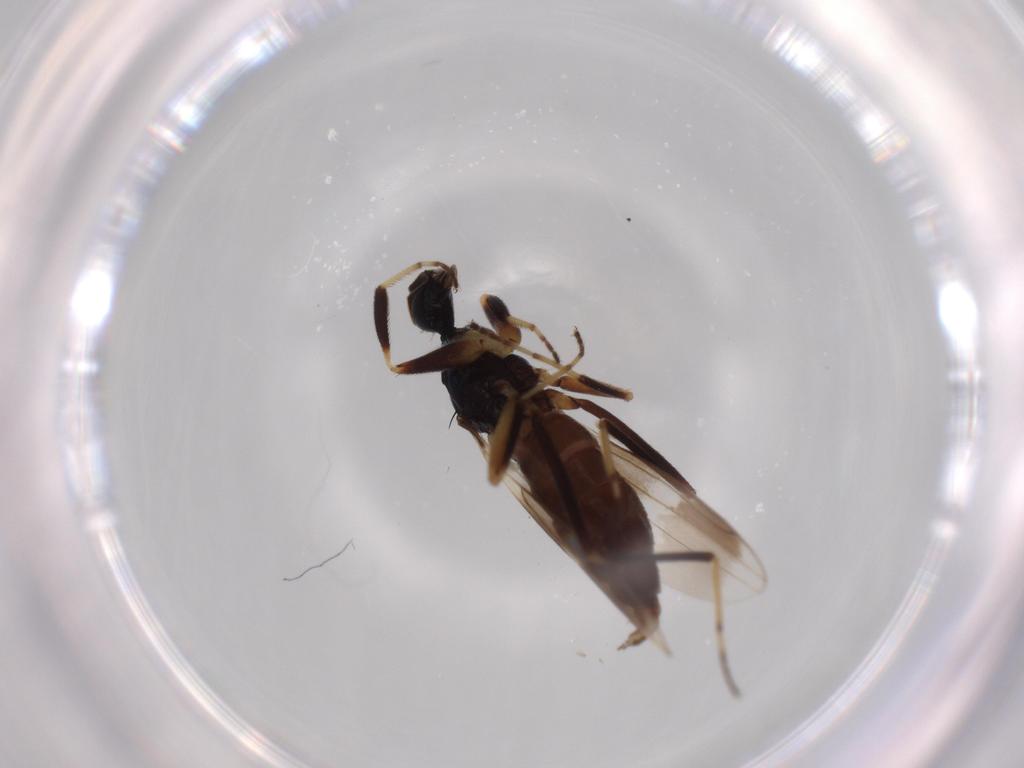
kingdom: Animalia
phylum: Arthropoda
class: Insecta
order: Diptera
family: Hybotidae
